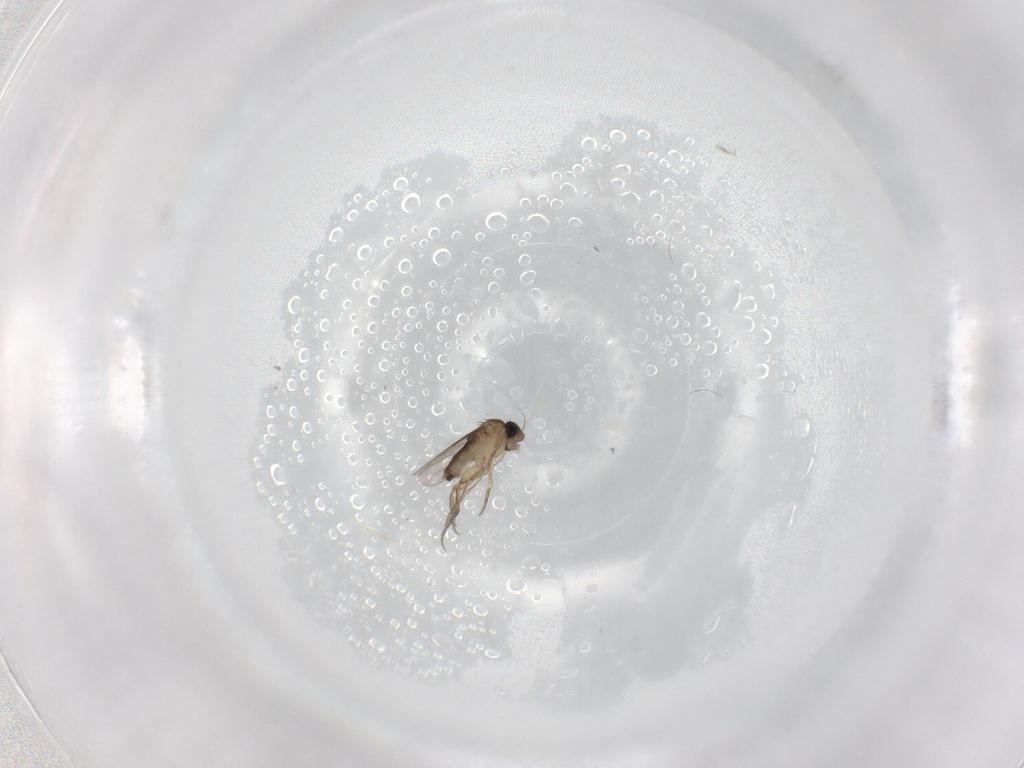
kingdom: Animalia
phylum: Arthropoda
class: Insecta
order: Diptera
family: Phoridae
